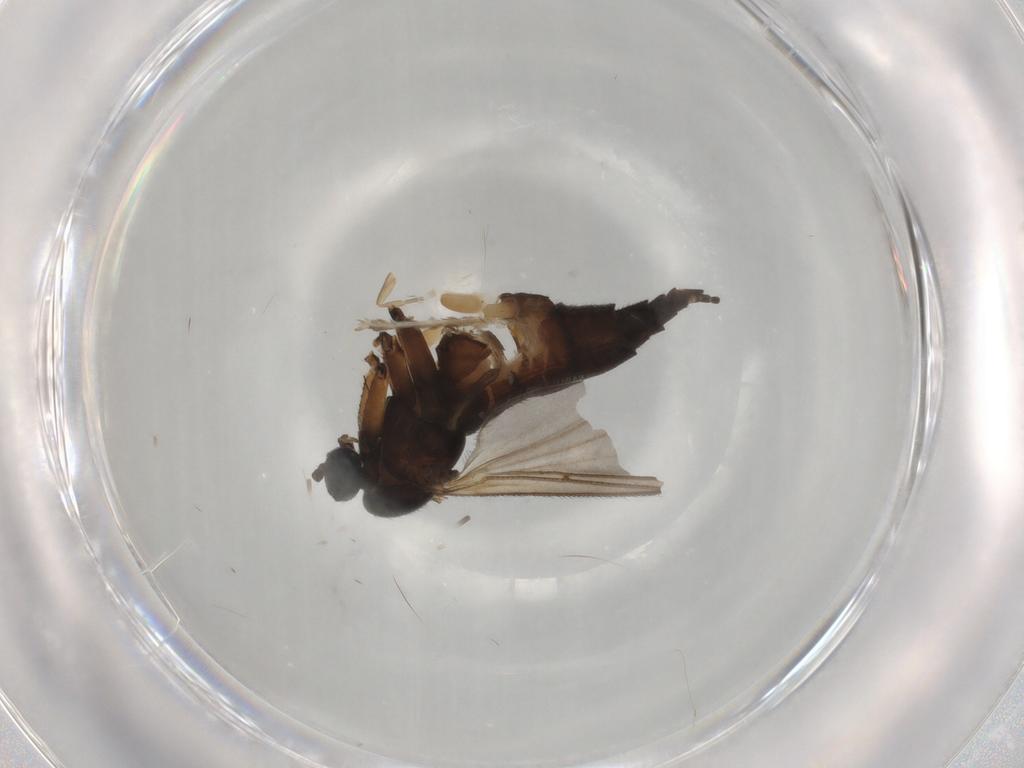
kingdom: Animalia
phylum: Arthropoda
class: Insecta
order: Diptera
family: Sciaridae
